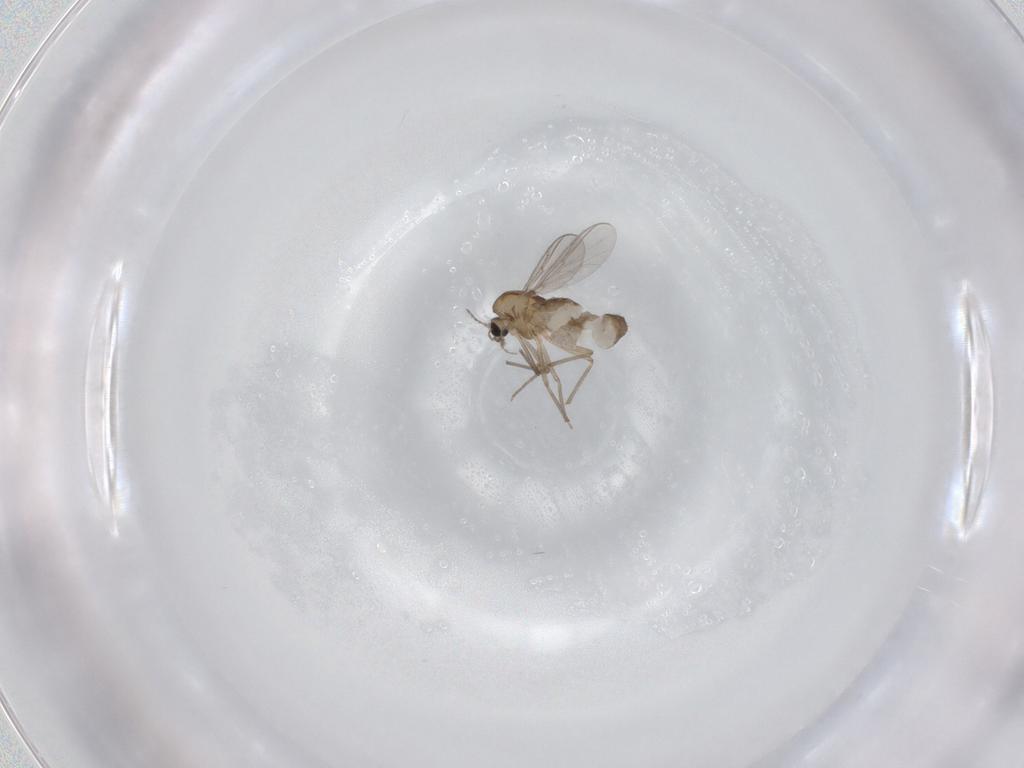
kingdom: Animalia
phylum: Arthropoda
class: Insecta
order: Diptera
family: Chironomidae
